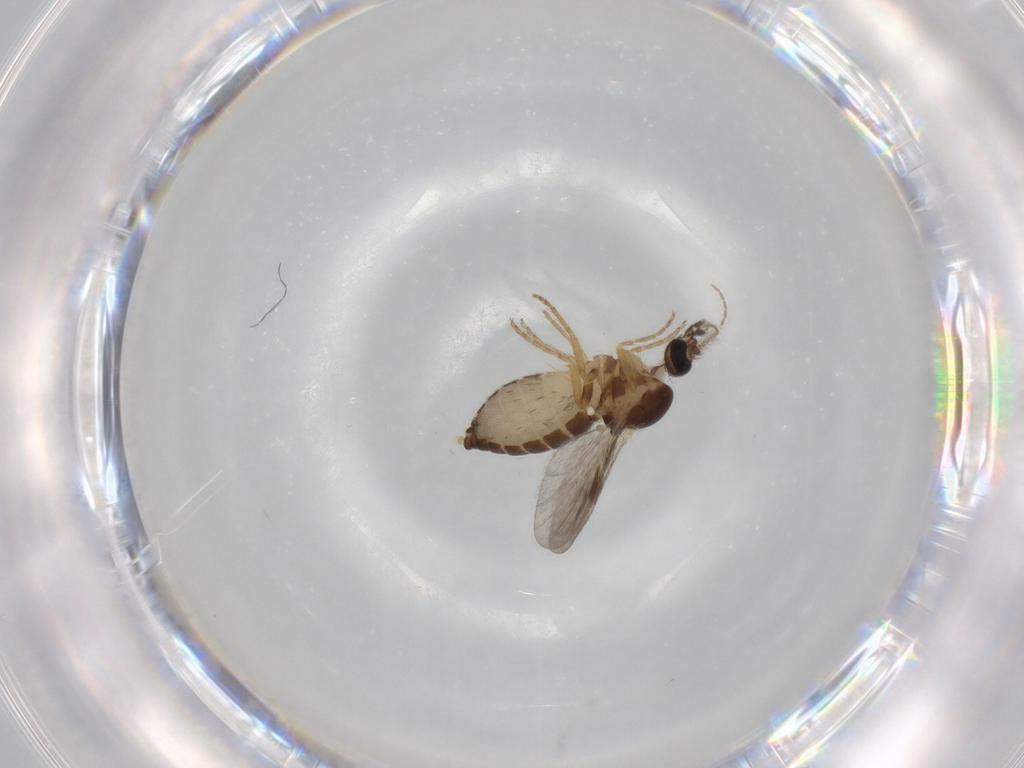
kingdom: Animalia
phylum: Arthropoda
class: Insecta
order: Diptera
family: Ceratopogonidae
